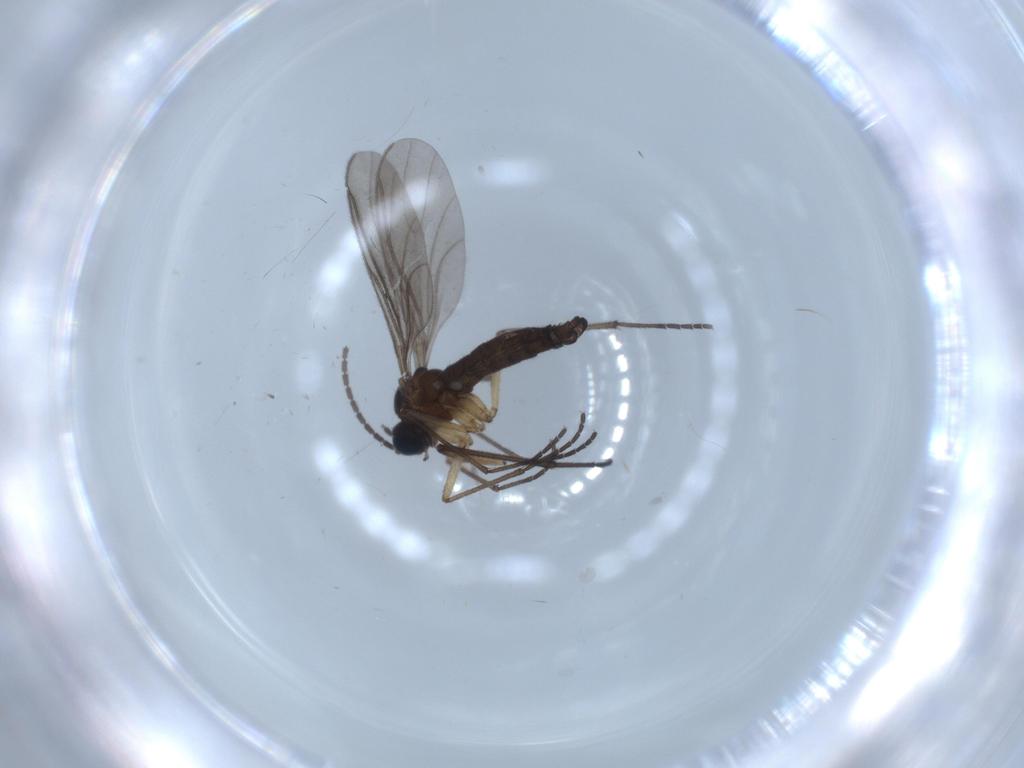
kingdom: Animalia
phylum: Arthropoda
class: Insecta
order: Diptera
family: Sciaridae
